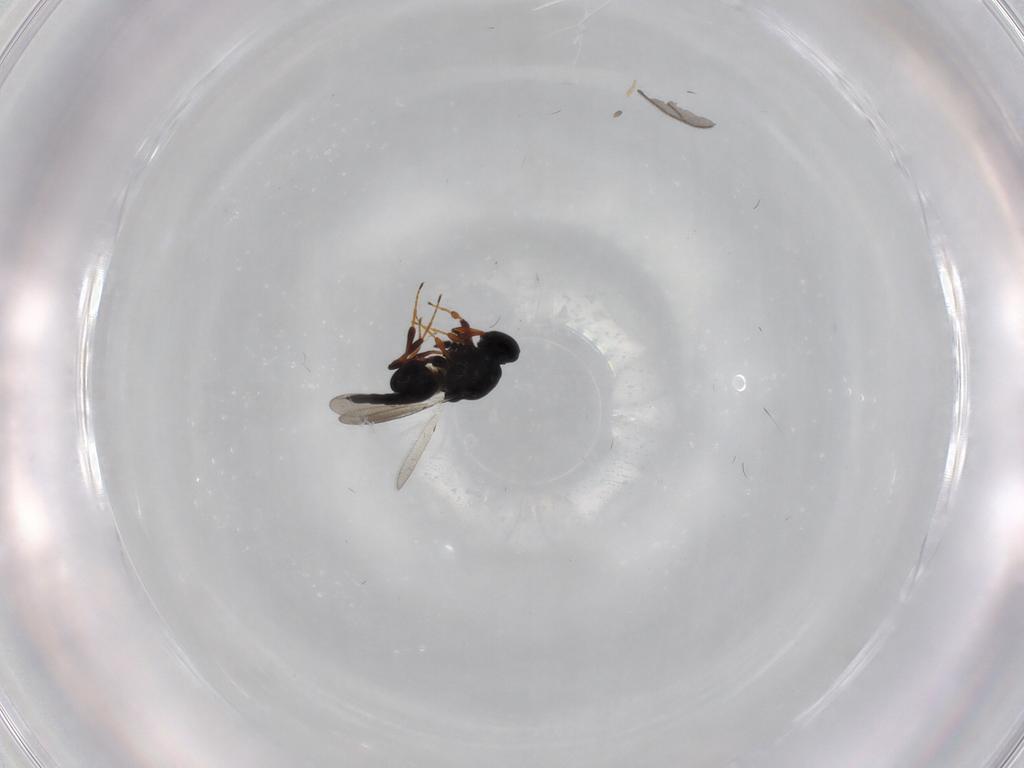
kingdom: Animalia
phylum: Arthropoda
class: Insecta
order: Hymenoptera
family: Platygastridae
